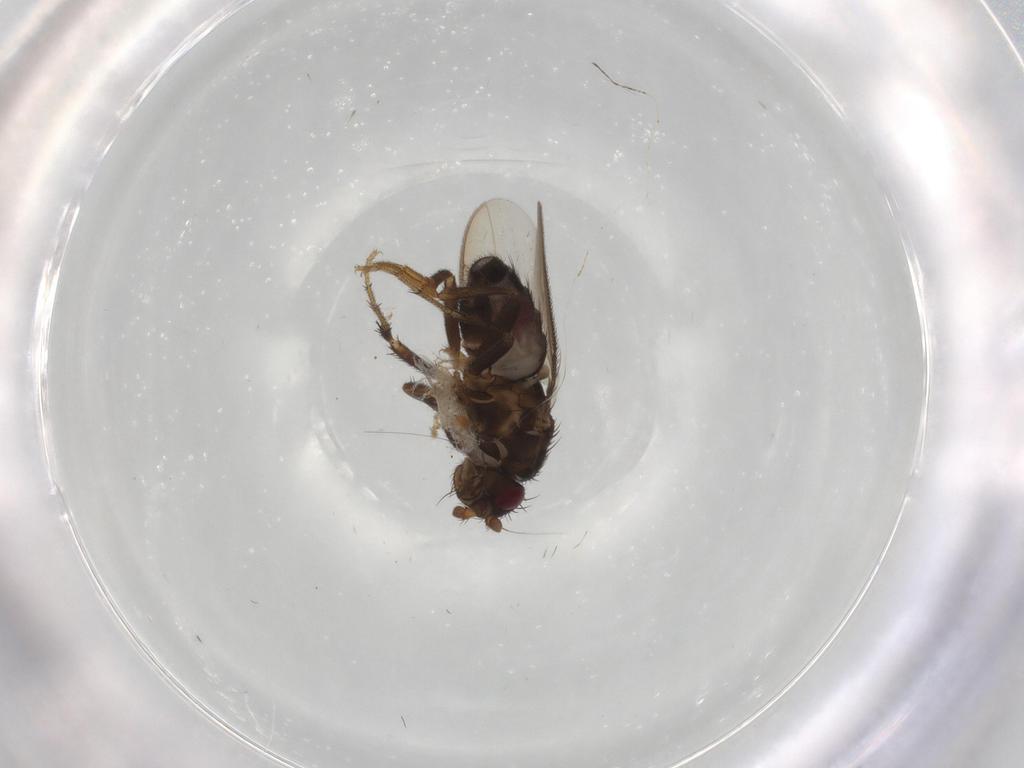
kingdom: Animalia
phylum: Arthropoda
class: Insecta
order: Diptera
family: Sphaeroceridae
